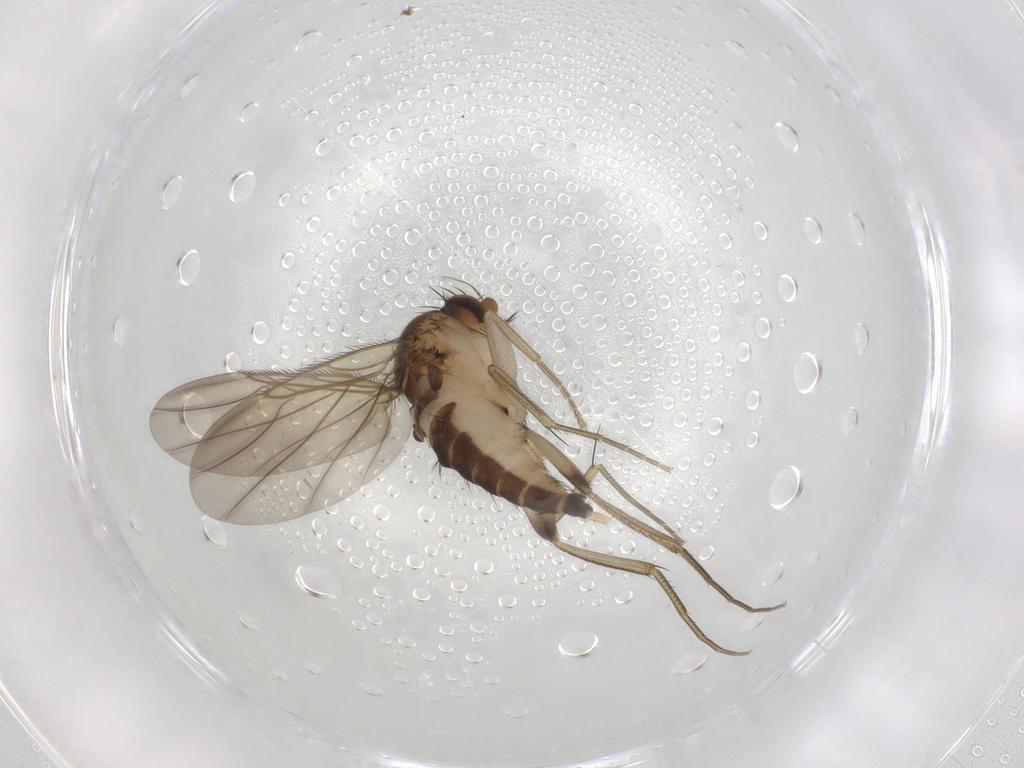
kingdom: Animalia
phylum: Arthropoda
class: Insecta
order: Diptera
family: Phoridae
